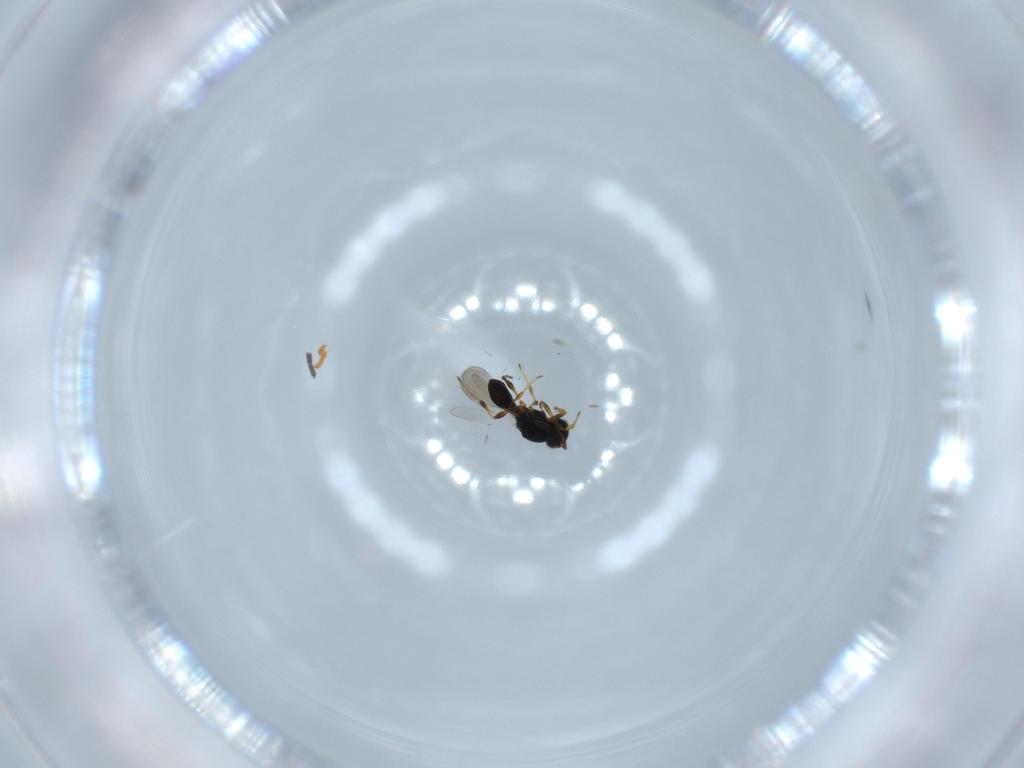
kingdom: Animalia
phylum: Arthropoda
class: Insecta
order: Hymenoptera
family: Platygastridae
